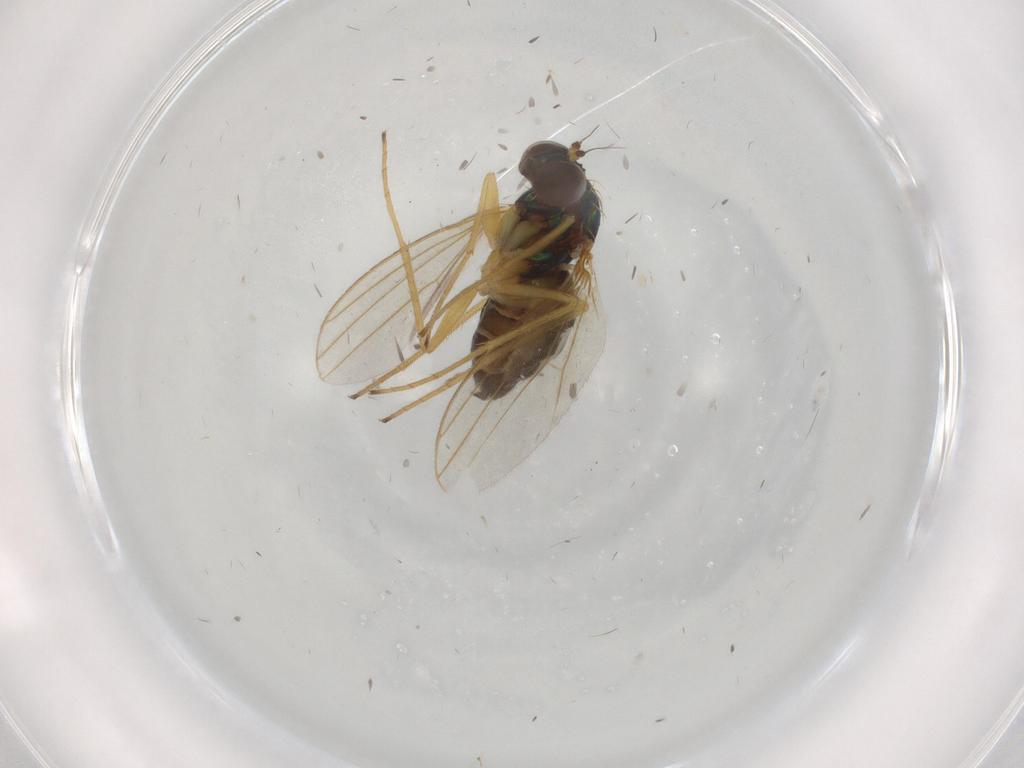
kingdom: Animalia
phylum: Arthropoda
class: Insecta
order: Diptera
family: Dolichopodidae
